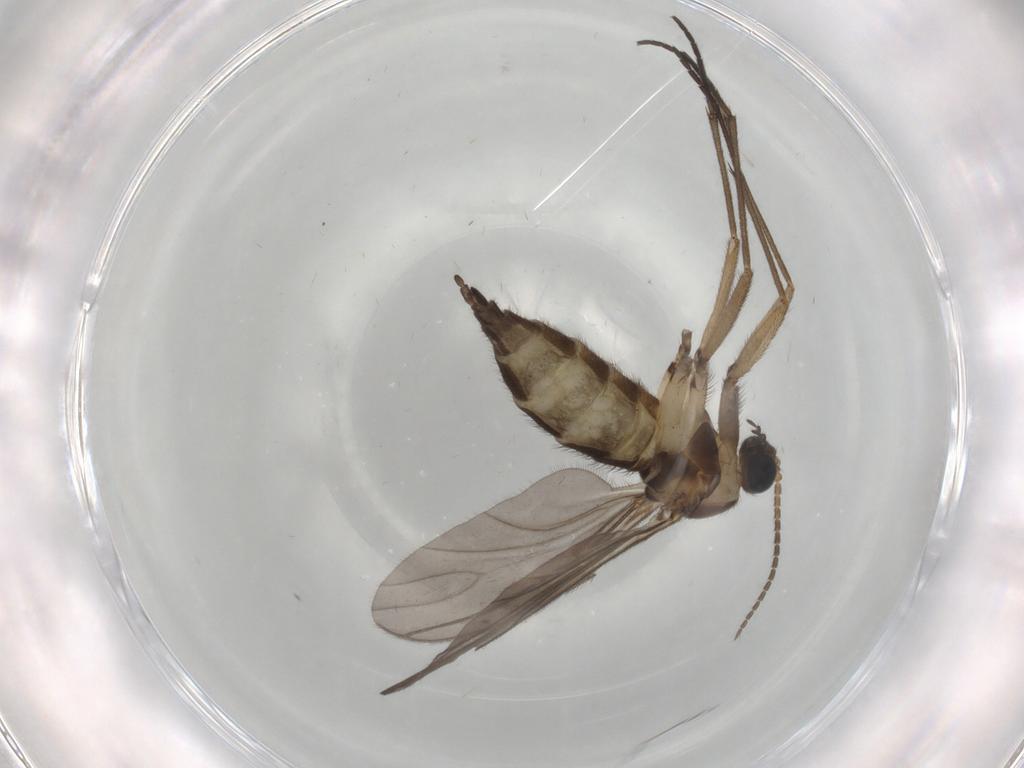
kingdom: Animalia
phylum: Arthropoda
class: Insecta
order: Diptera
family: Sciaridae
